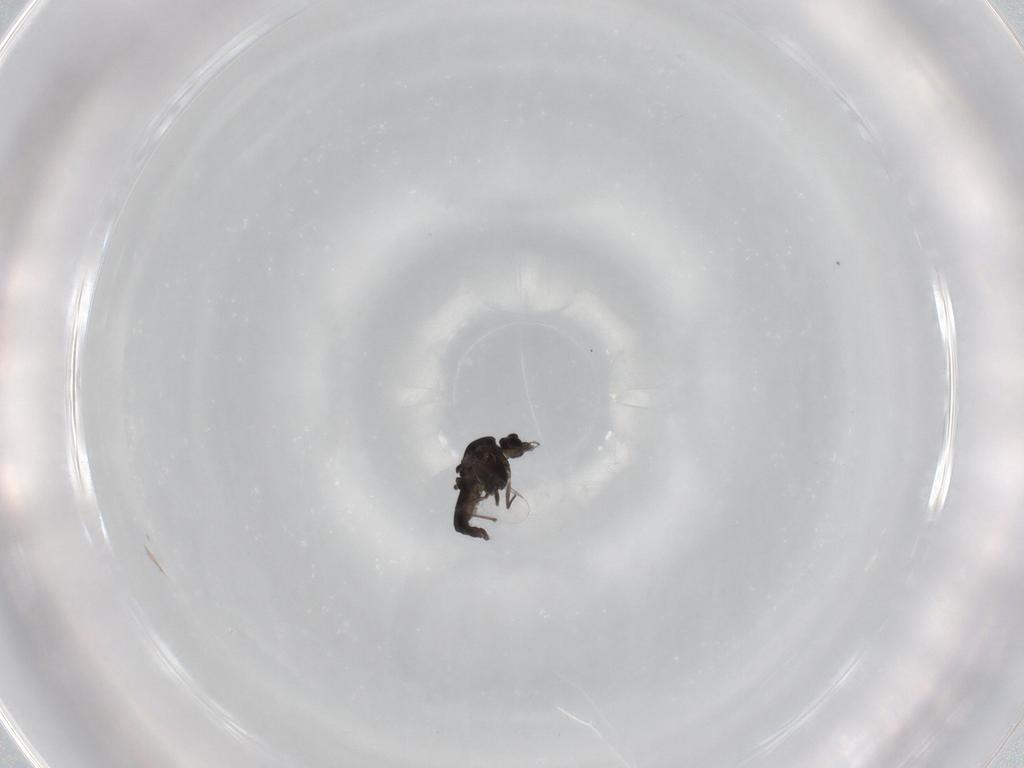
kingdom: Animalia
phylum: Arthropoda
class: Insecta
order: Diptera
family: Chironomidae
